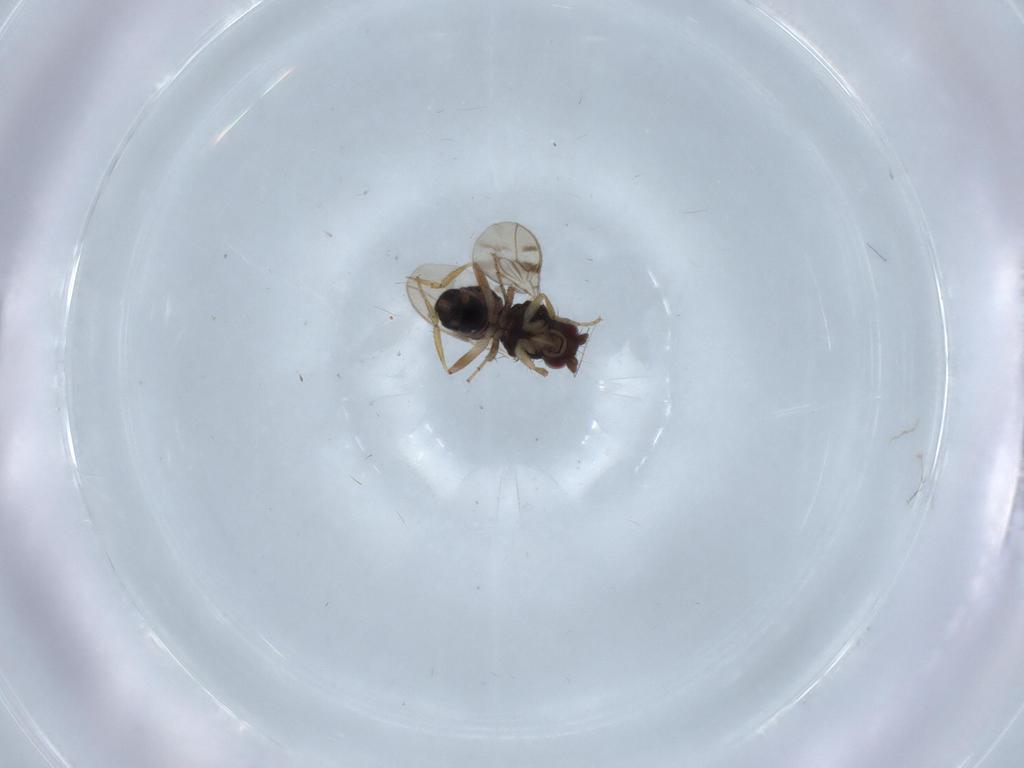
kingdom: Animalia
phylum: Arthropoda
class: Insecta
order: Diptera
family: Sphaeroceridae
